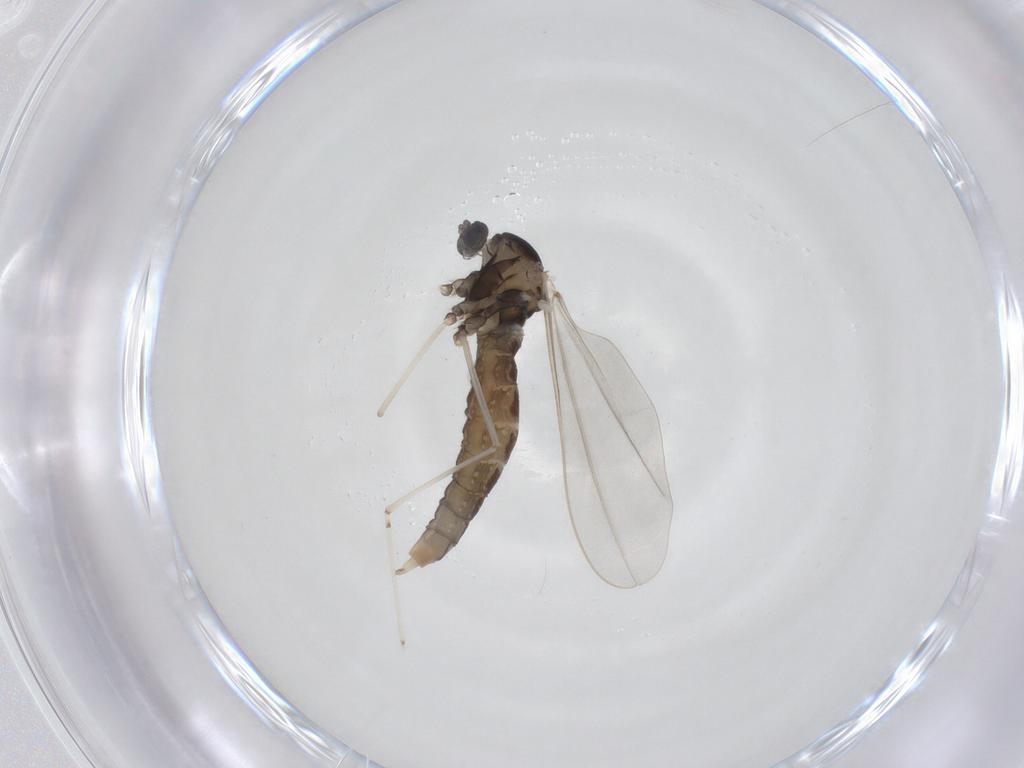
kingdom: Animalia
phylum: Arthropoda
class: Insecta
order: Diptera
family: Cecidomyiidae
